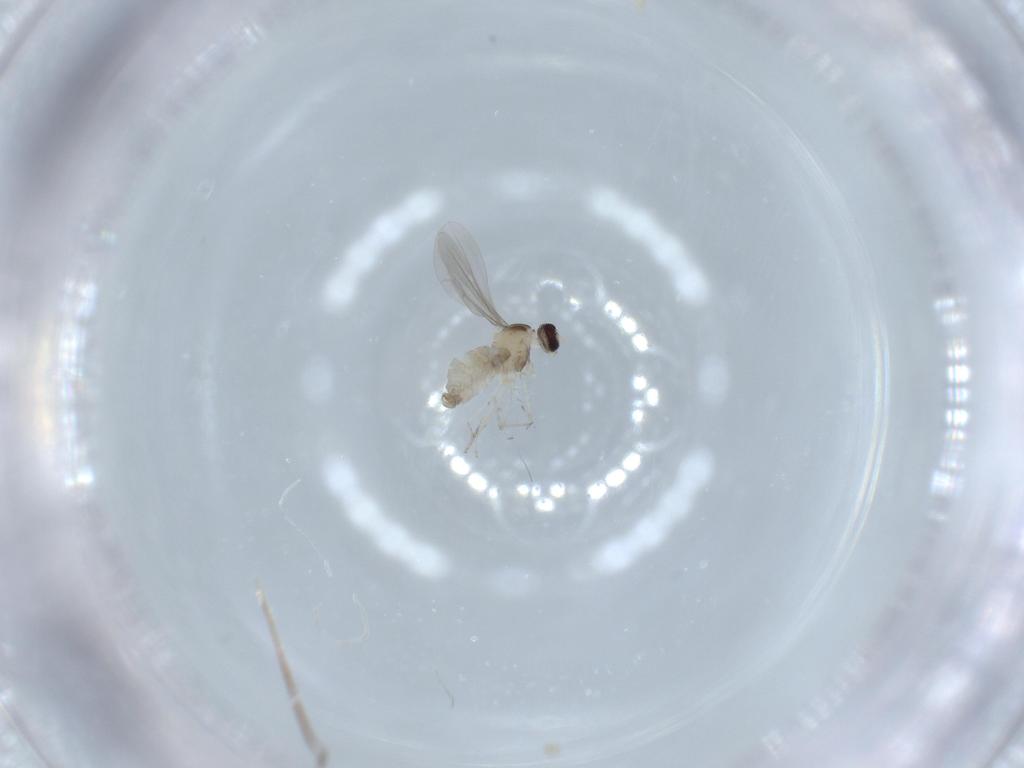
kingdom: Animalia
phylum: Arthropoda
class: Insecta
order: Diptera
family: Cecidomyiidae
